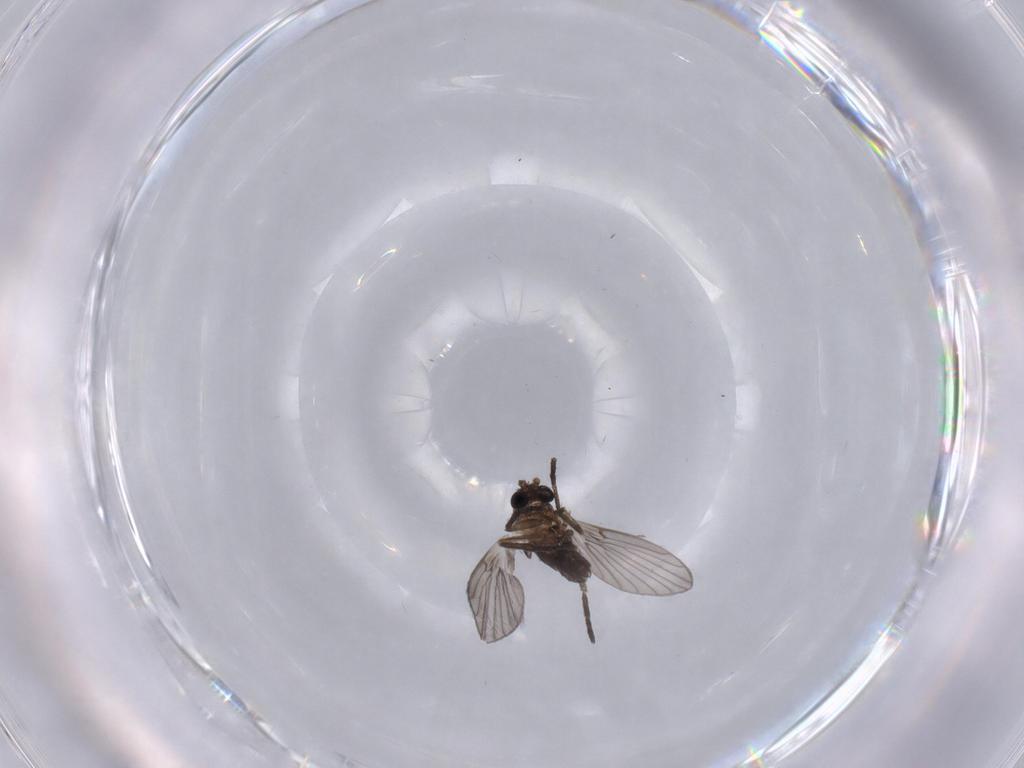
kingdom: Animalia
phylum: Arthropoda
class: Insecta
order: Diptera
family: Psychodidae
